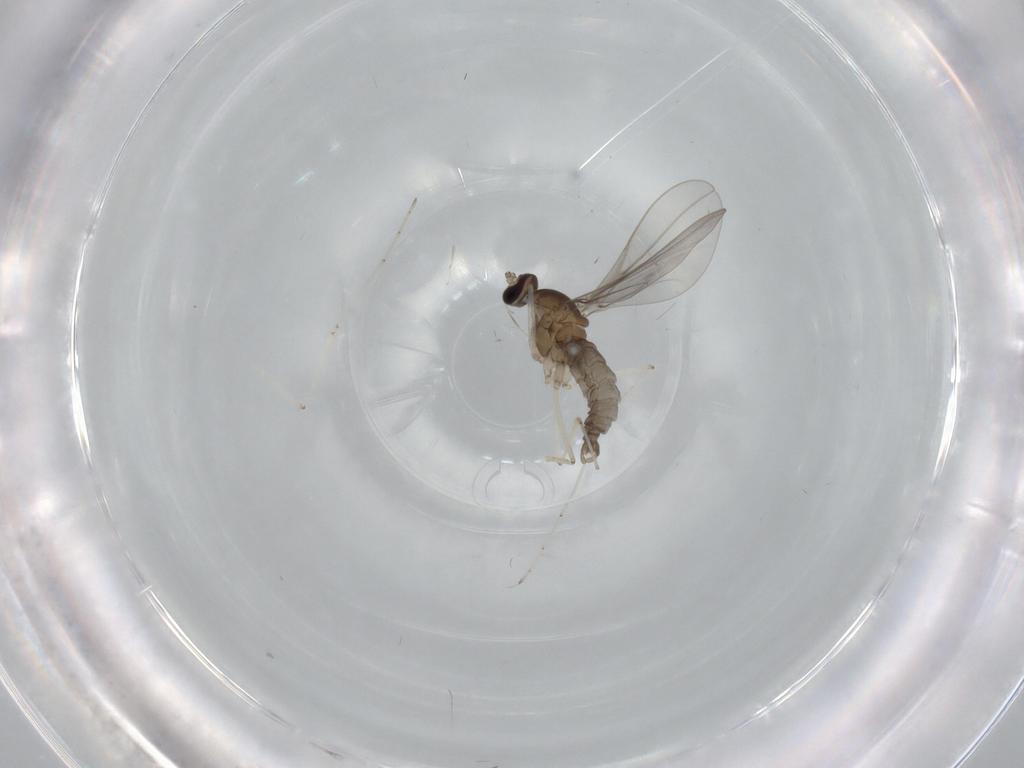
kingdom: Animalia
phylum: Arthropoda
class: Insecta
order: Diptera
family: Cecidomyiidae
